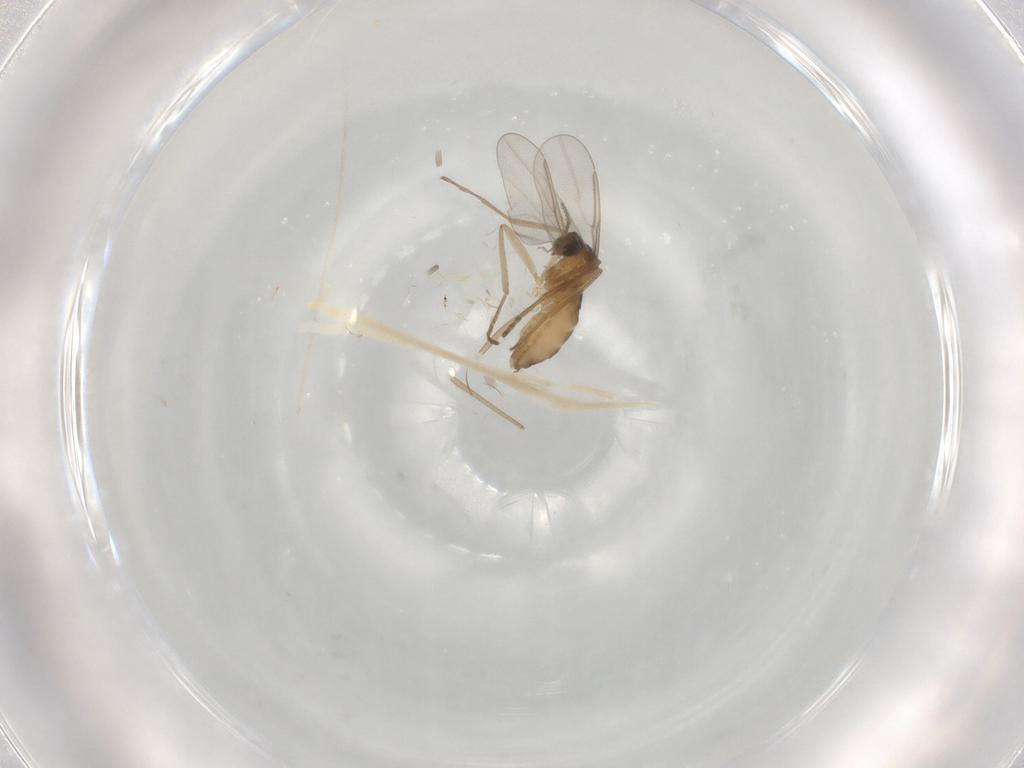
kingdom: Animalia
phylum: Arthropoda
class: Insecta
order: Diptera
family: Cecidomyiidae
